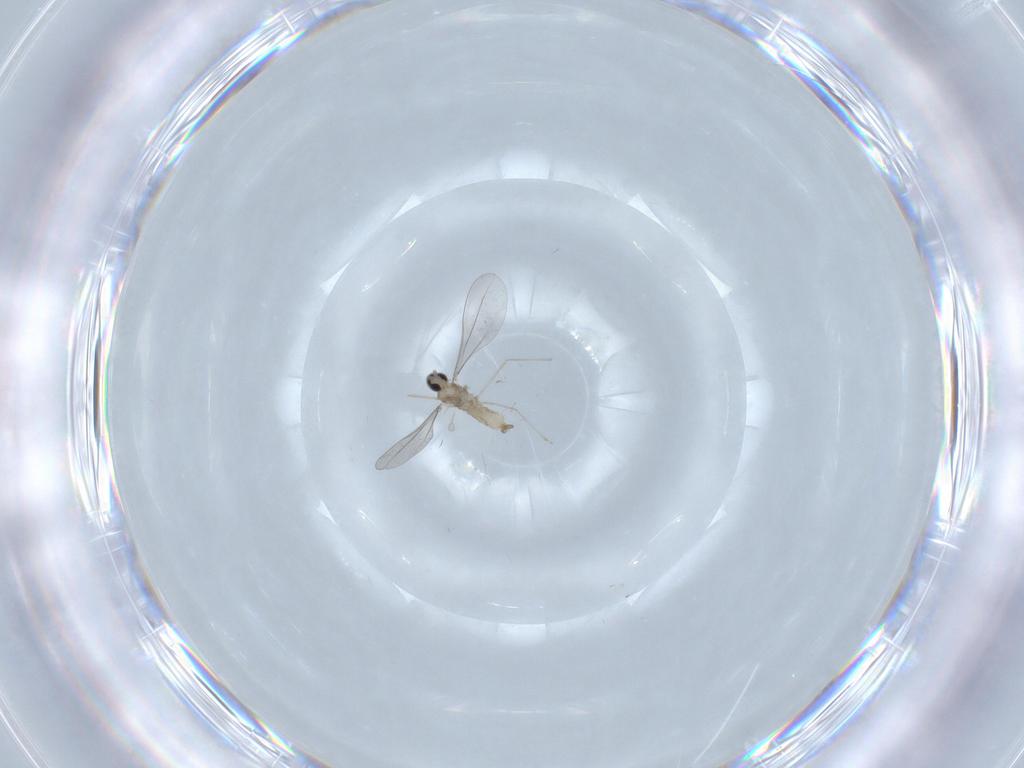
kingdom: Animalia
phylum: Arthropoda
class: Insecta
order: Diptera
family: Cecidomyiidae
